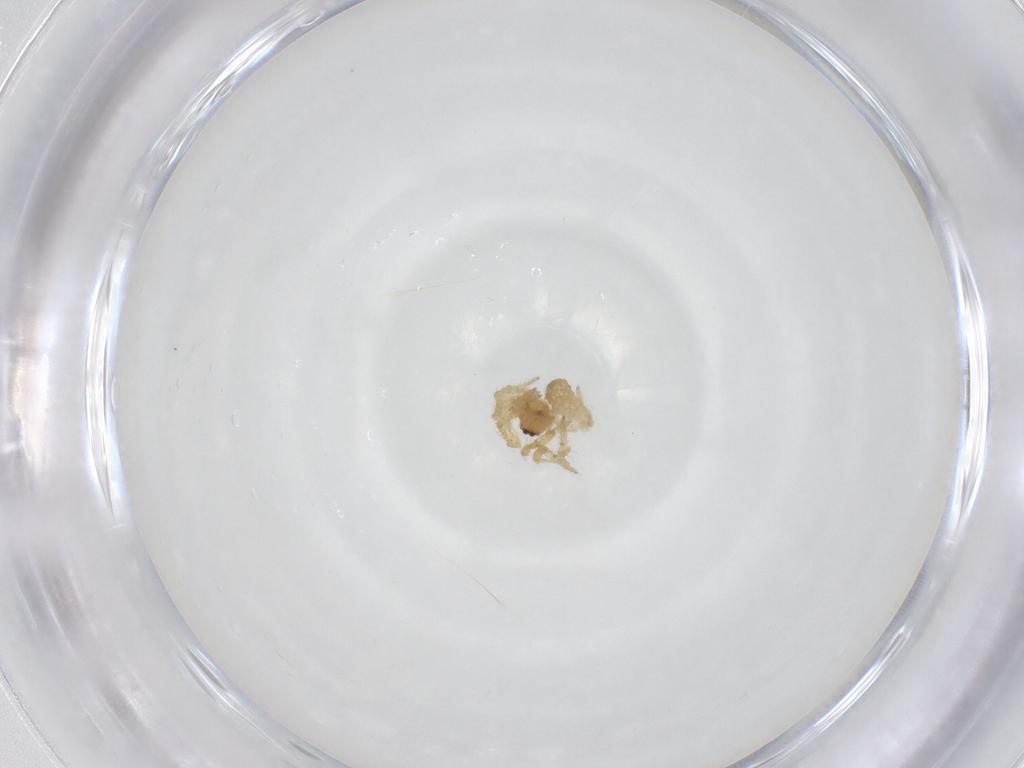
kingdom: Animalia
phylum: Arthropoda
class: Arachnida
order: Araneae
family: Theridiidae
